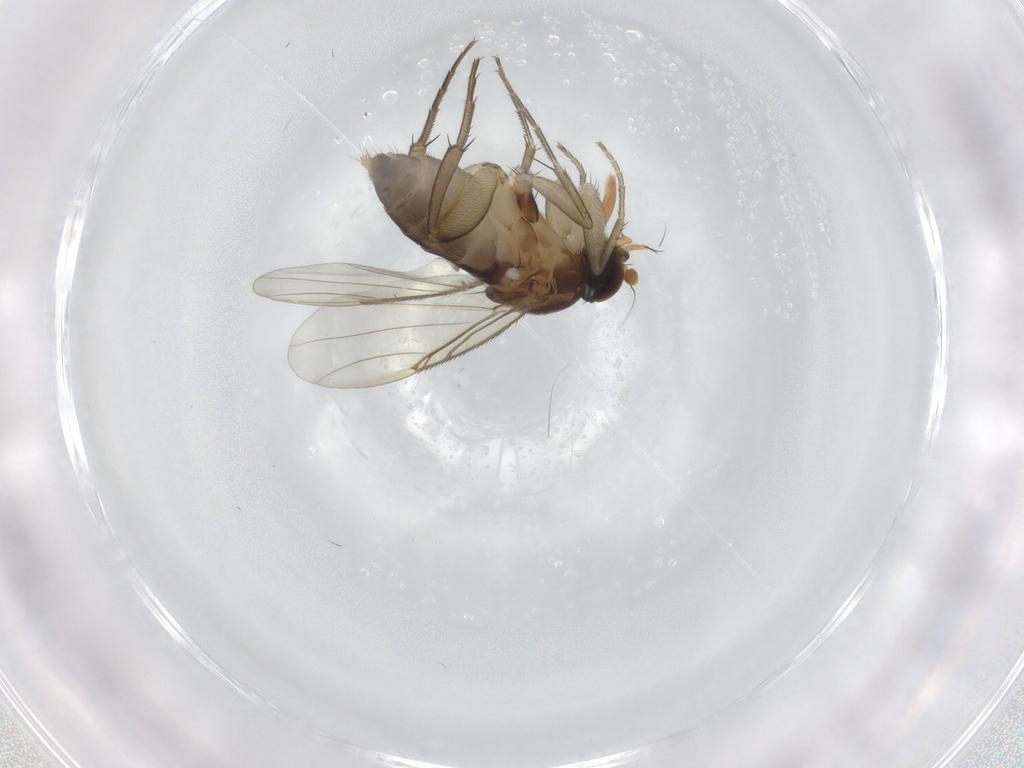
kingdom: Animalia
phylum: Arthropoda
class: Insecta
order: Diptera
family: Phoridae
